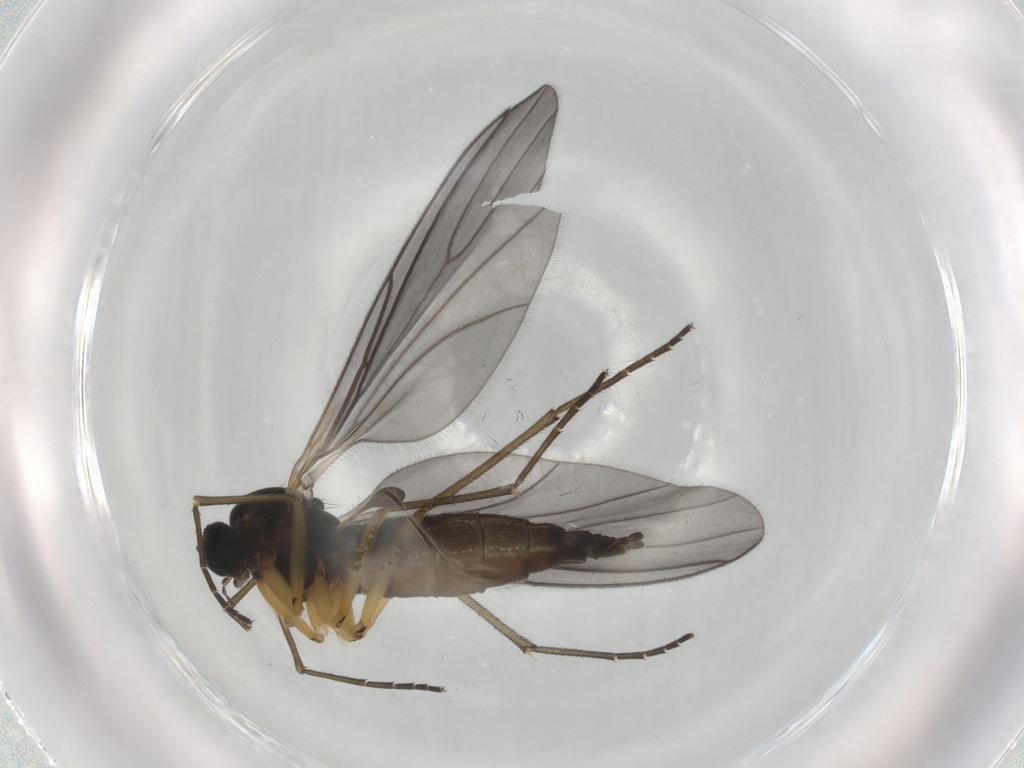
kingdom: Animalia
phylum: Arthropoda
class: Insecta
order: Diptera
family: Sciaridae
